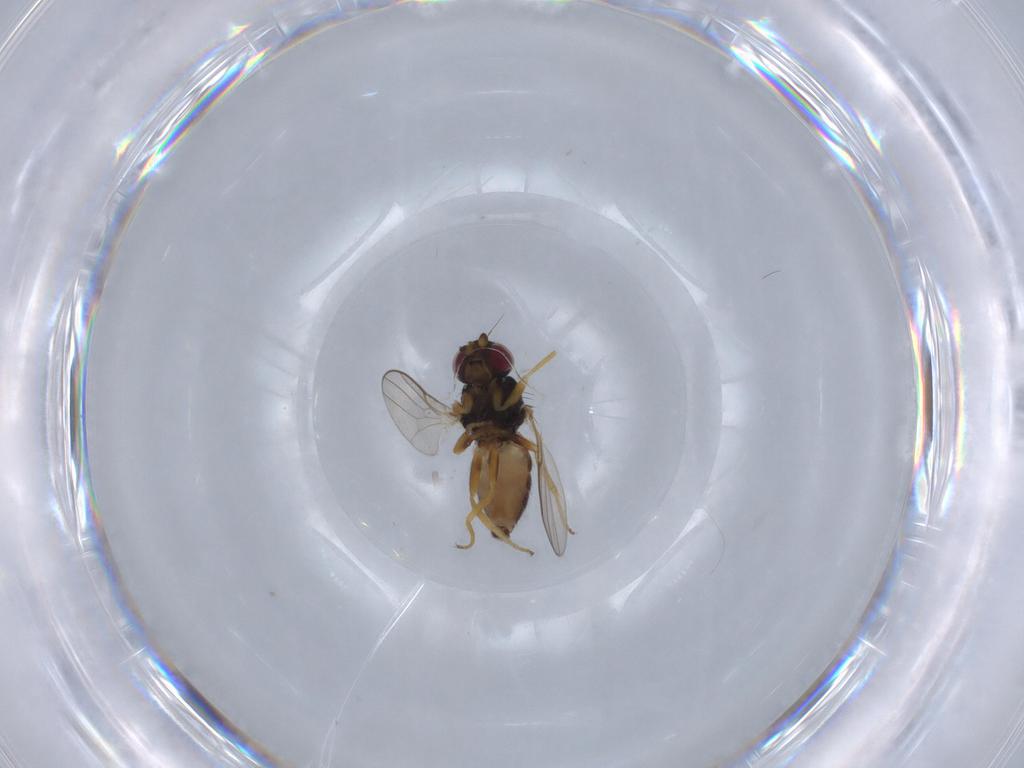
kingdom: Animalia
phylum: Arthropoda
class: Insecta
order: Diptera
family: Chloropidae
